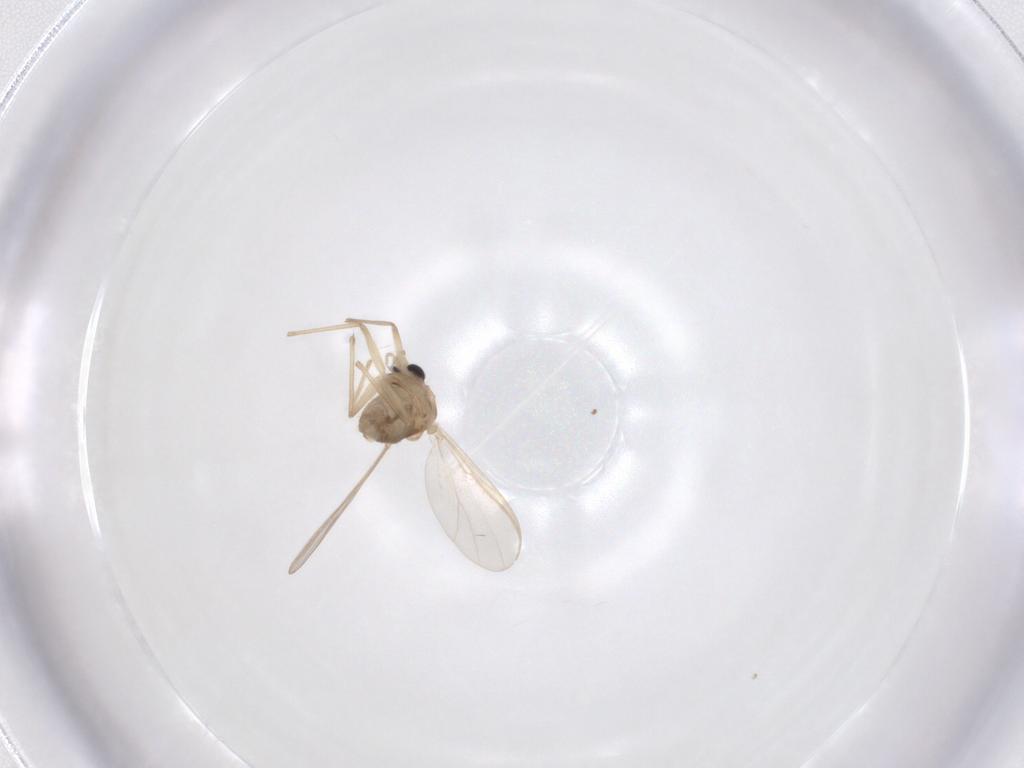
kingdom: Animalia
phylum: Arthropoda
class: Insecta
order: Diptera
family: Chironomidae
